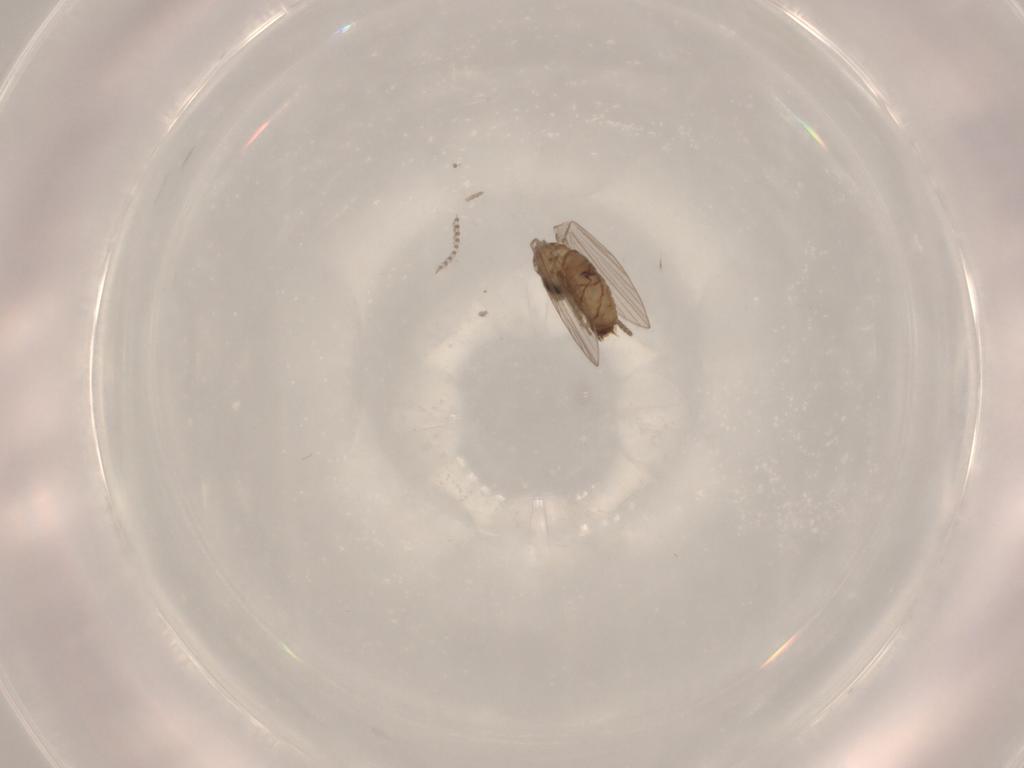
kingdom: Animalia
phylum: Arthropoda
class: Insecta
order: Diptera
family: Psychodidae
